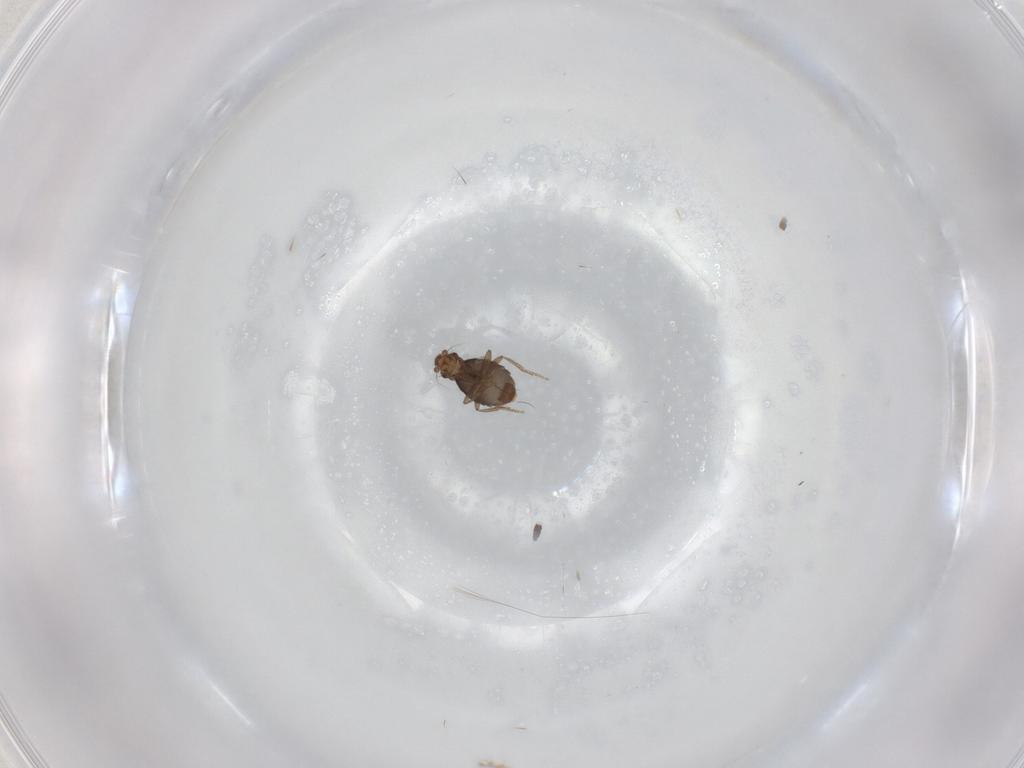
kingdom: Animalia
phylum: Arthropoda
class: Insecta
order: Diptera
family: Phoridae
